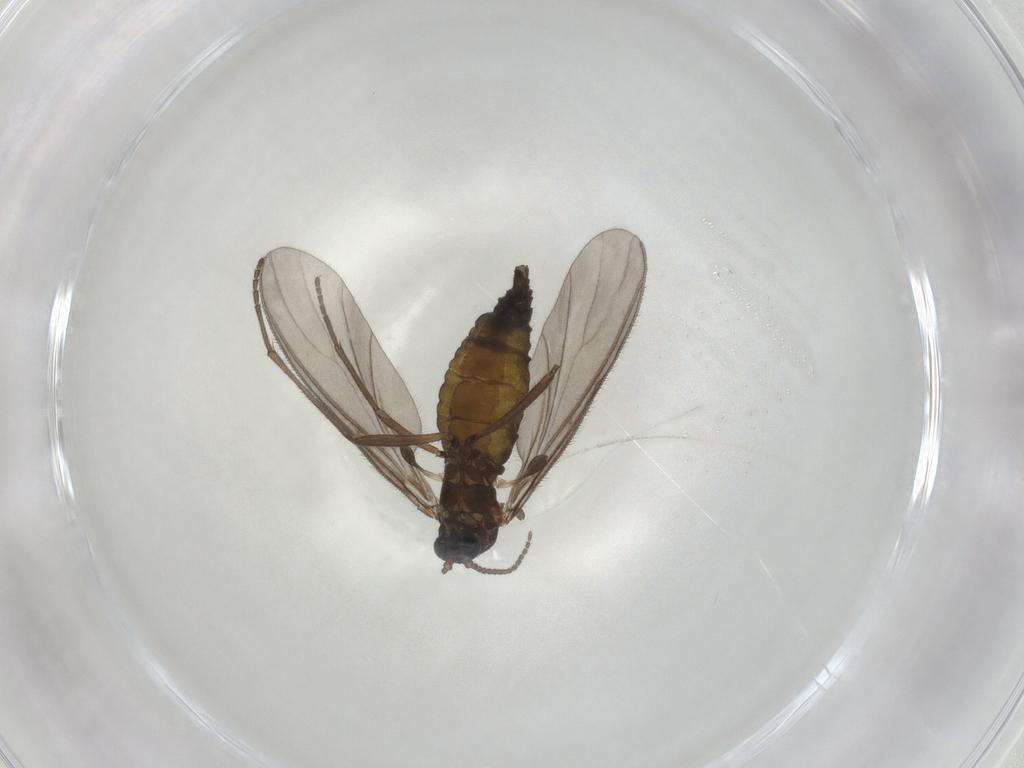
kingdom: Animalia
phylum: Arthropoda
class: Insecta
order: Diptera
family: Sciaridae
